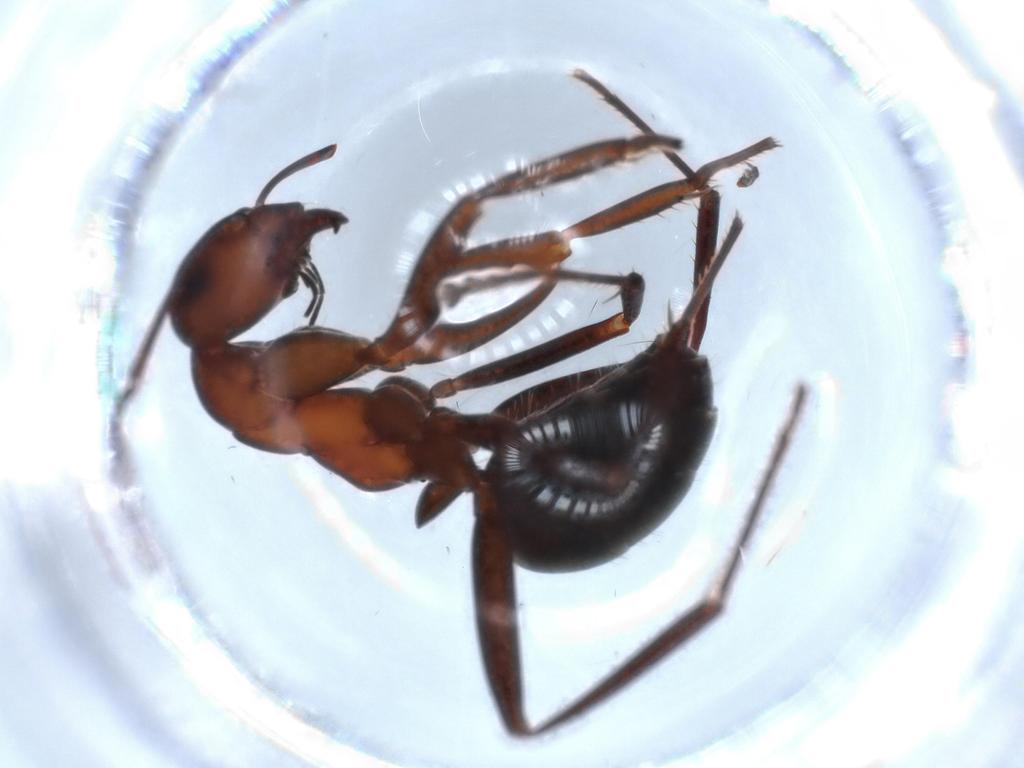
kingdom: Animalia
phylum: Arthropoda
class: Insecta
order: Hymenoptera
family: Formicidae
